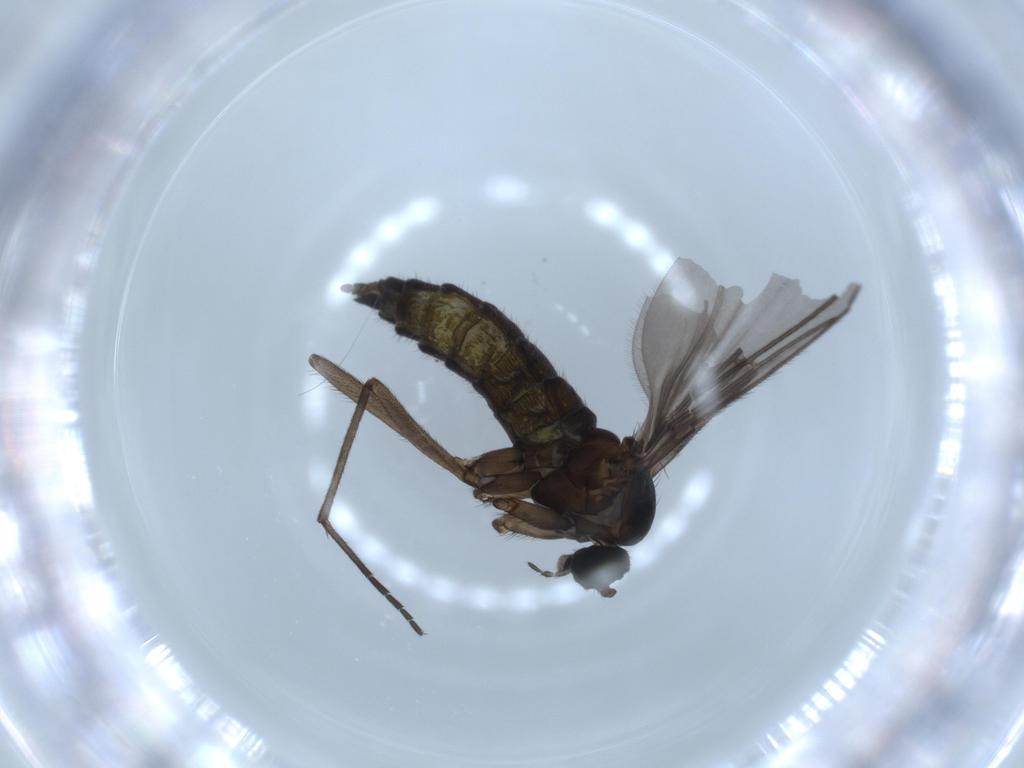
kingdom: Animalia
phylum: Arthropoda
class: Insecta
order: Diptera
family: Sciaridae
